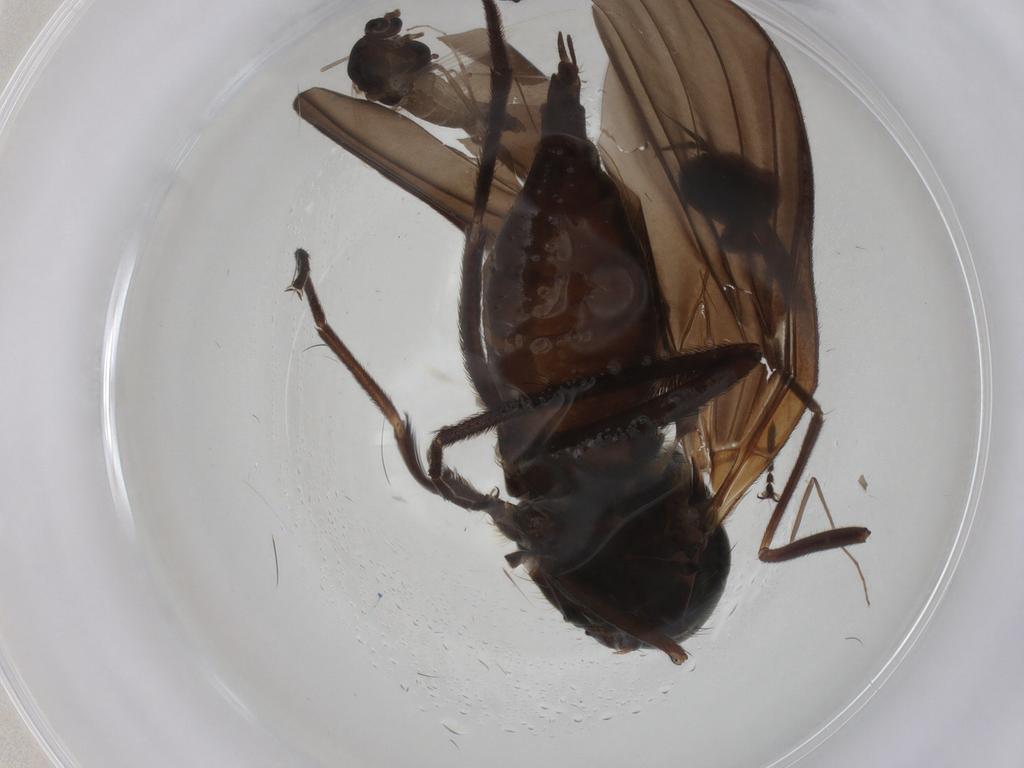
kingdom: Animalia
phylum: Arthropoda
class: Insecta
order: Diptera
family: Empididae
